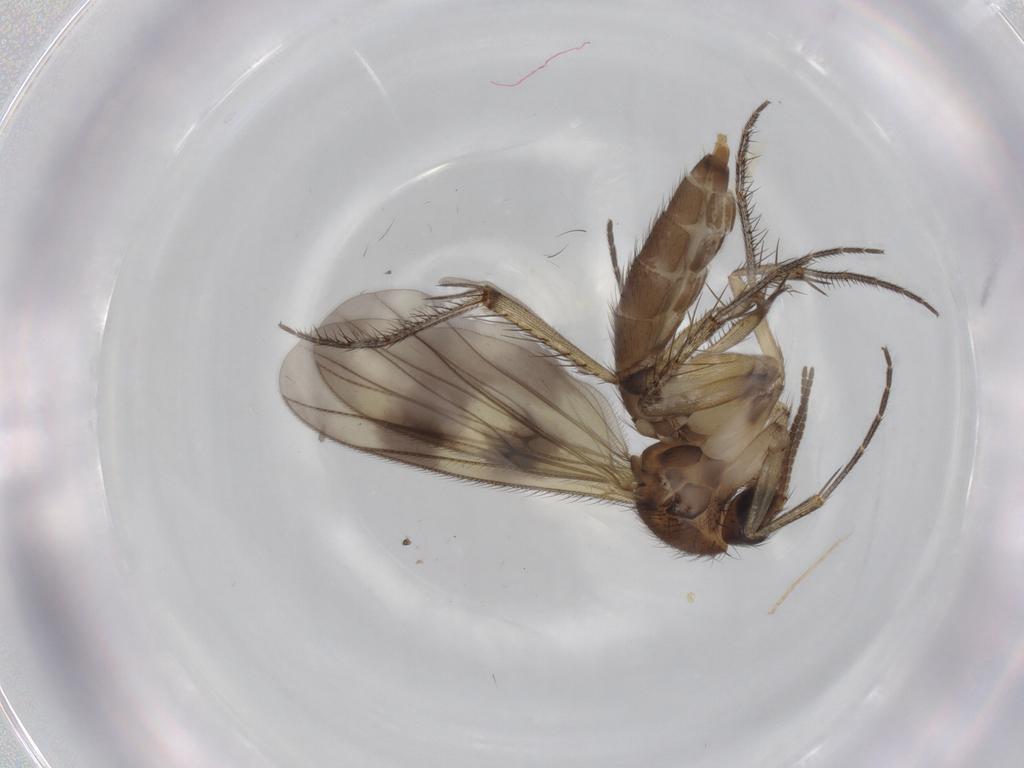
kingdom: Animalia
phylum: Arthropoda
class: Insecta
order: Diptera
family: Mycetophilidae
